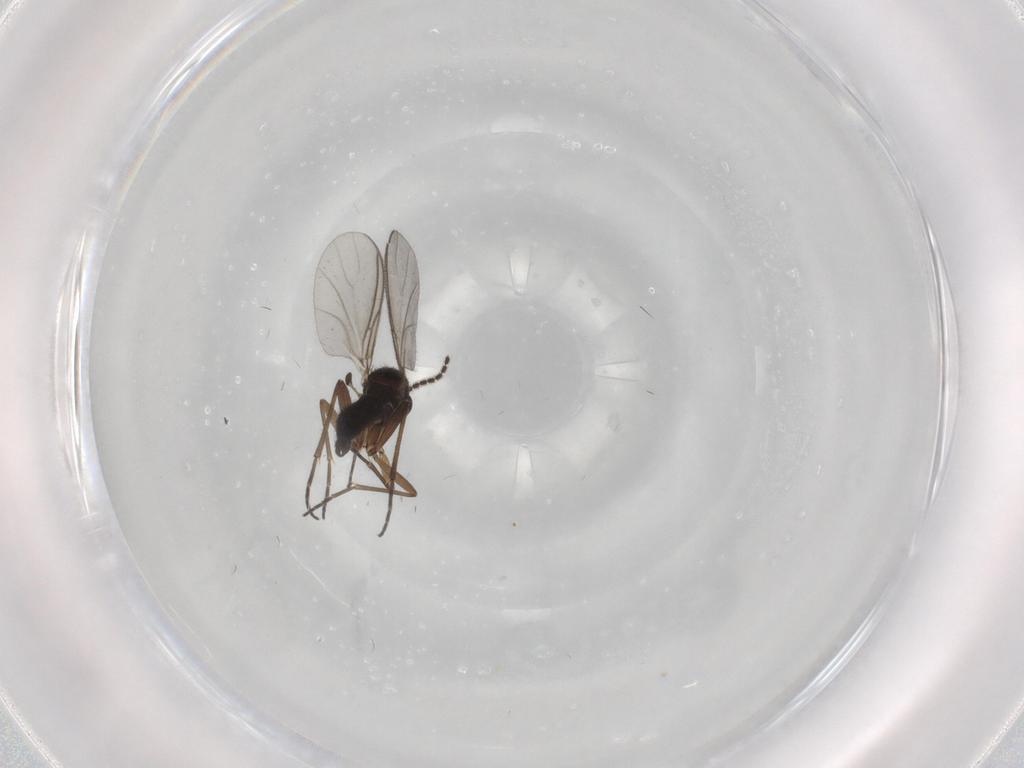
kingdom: Animalia
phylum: Arthropoda
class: Insecta
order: Diptera
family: Sciaridae
